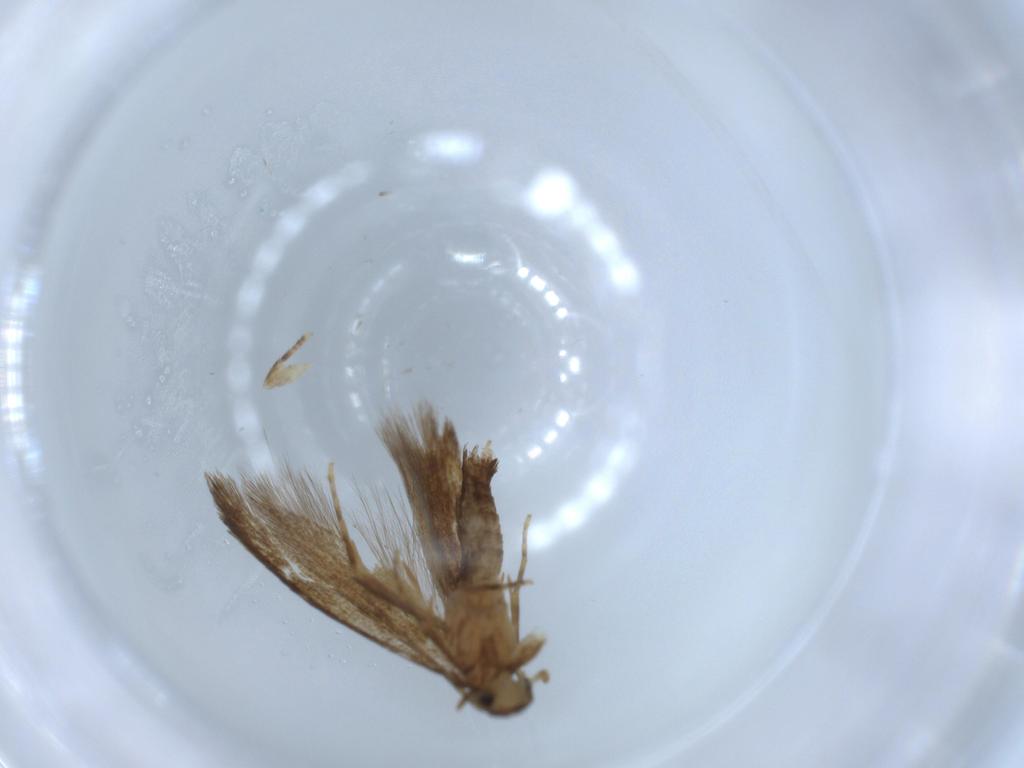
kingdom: Animalia
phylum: Arthropoda
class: Insecta
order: Lepidoptera
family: Tineidae
